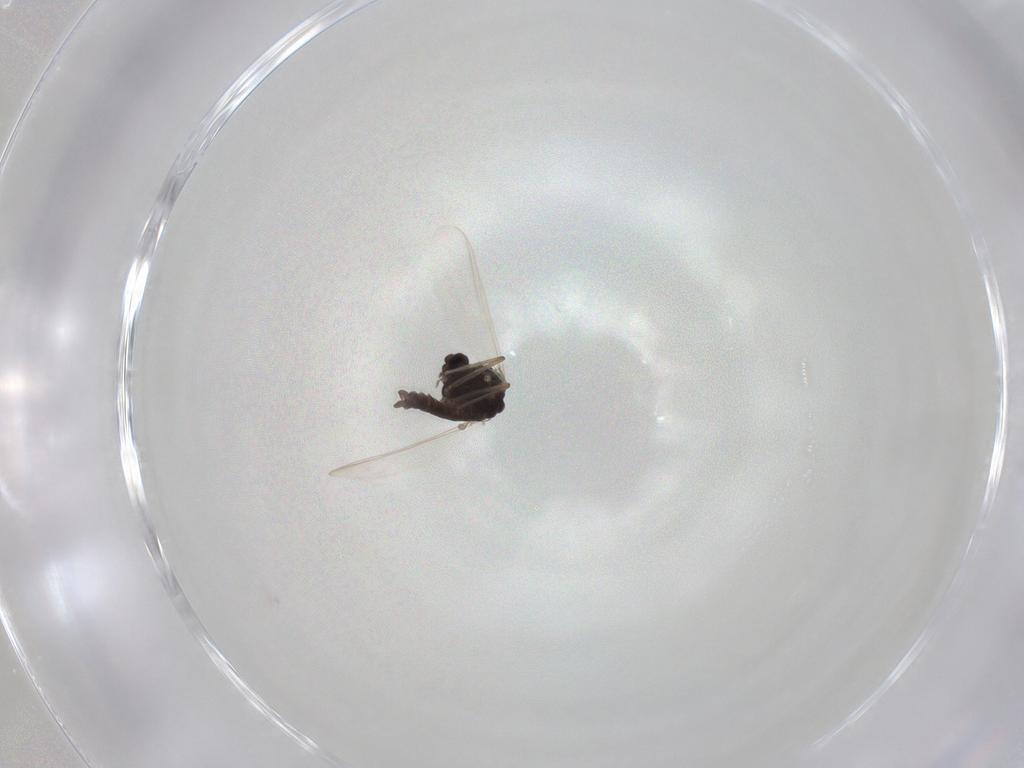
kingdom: Animalia
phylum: Arthropoda
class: Insecta
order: Diptera
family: Chironomidae
